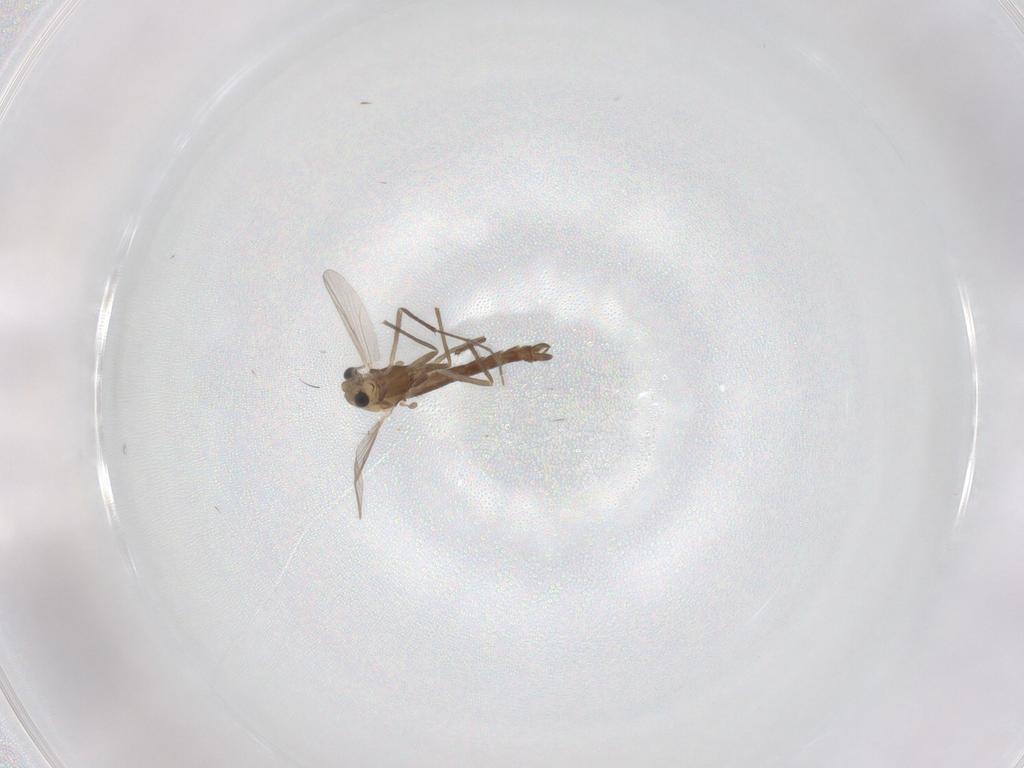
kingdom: Animalia
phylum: Arthropoda
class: Insecta
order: Diptera
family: Chironomidae
